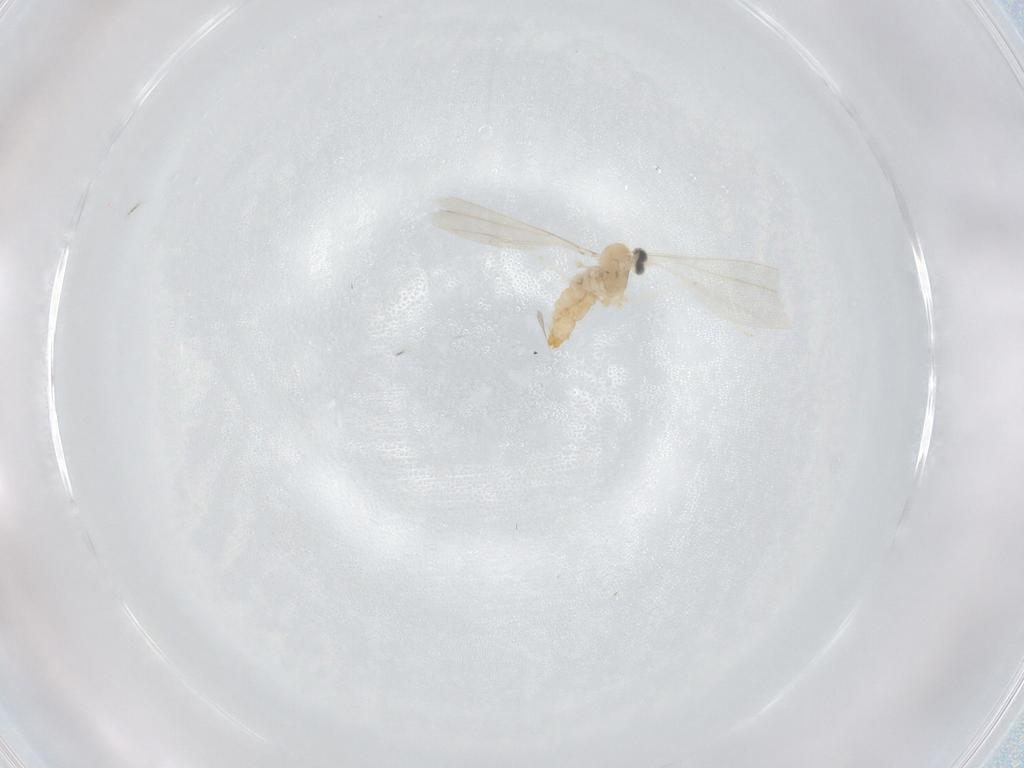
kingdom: Animalia
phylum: Arthropoda
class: Insecta
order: Diptera
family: Cecidomyiidae
